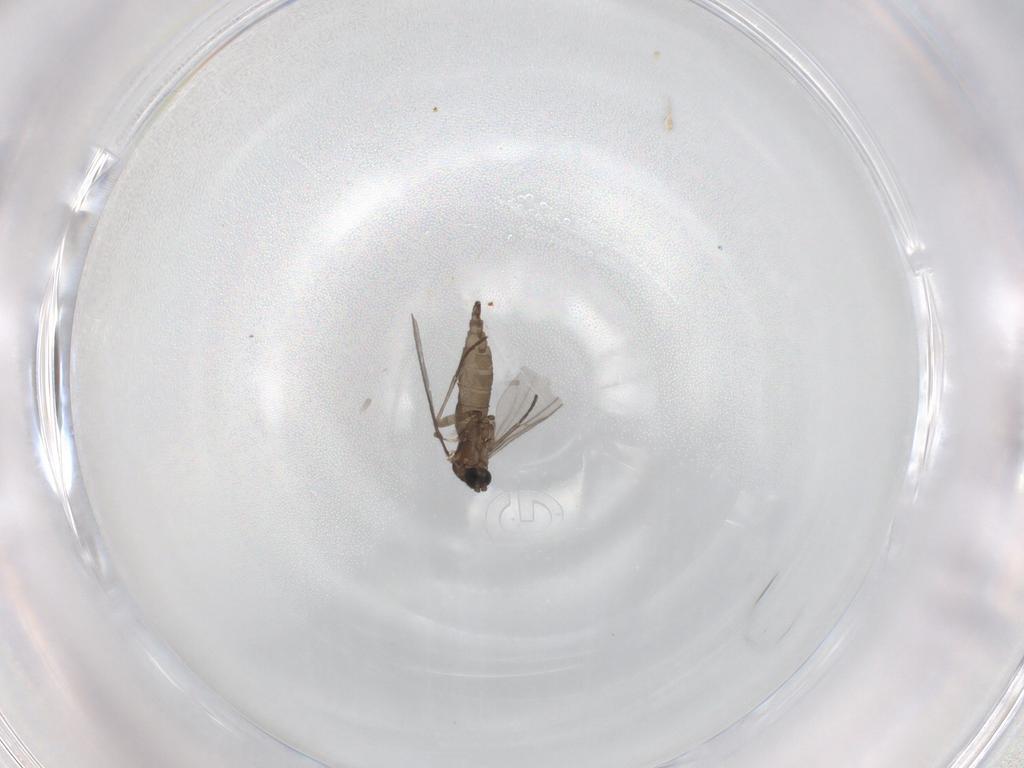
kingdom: Animalia
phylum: Arthropoda
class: Insecta
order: Diptera
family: Sciaridae
